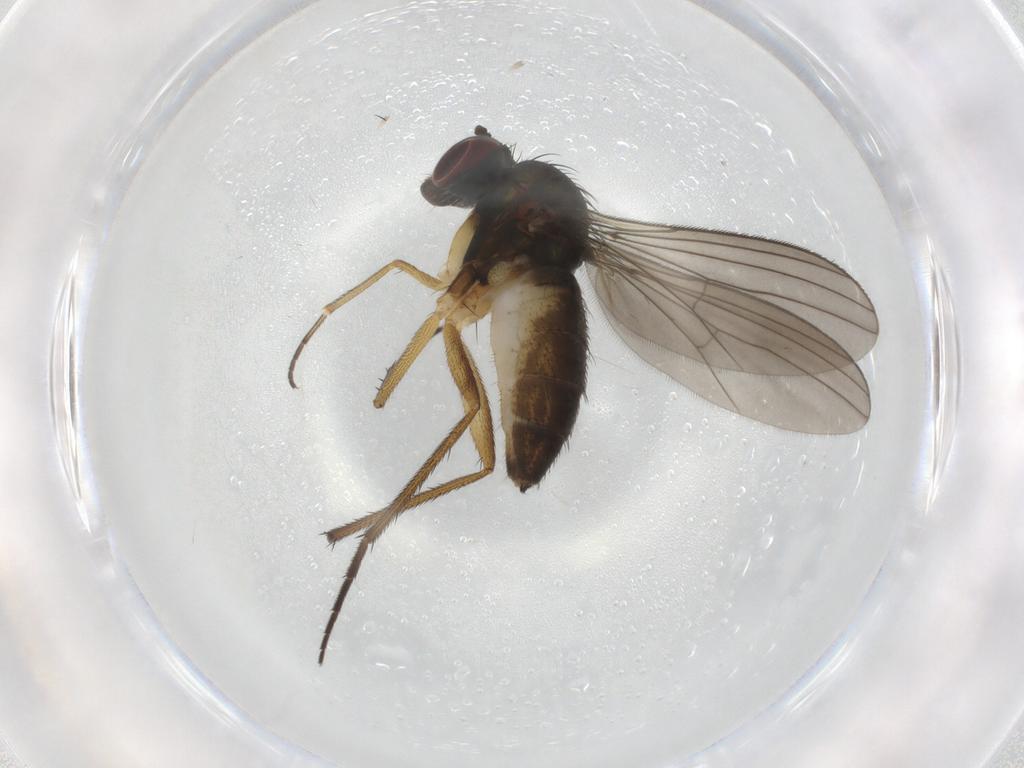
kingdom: Animalia
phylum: Arthropoda
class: Insecta
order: Diptera
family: Dolichopodidae
